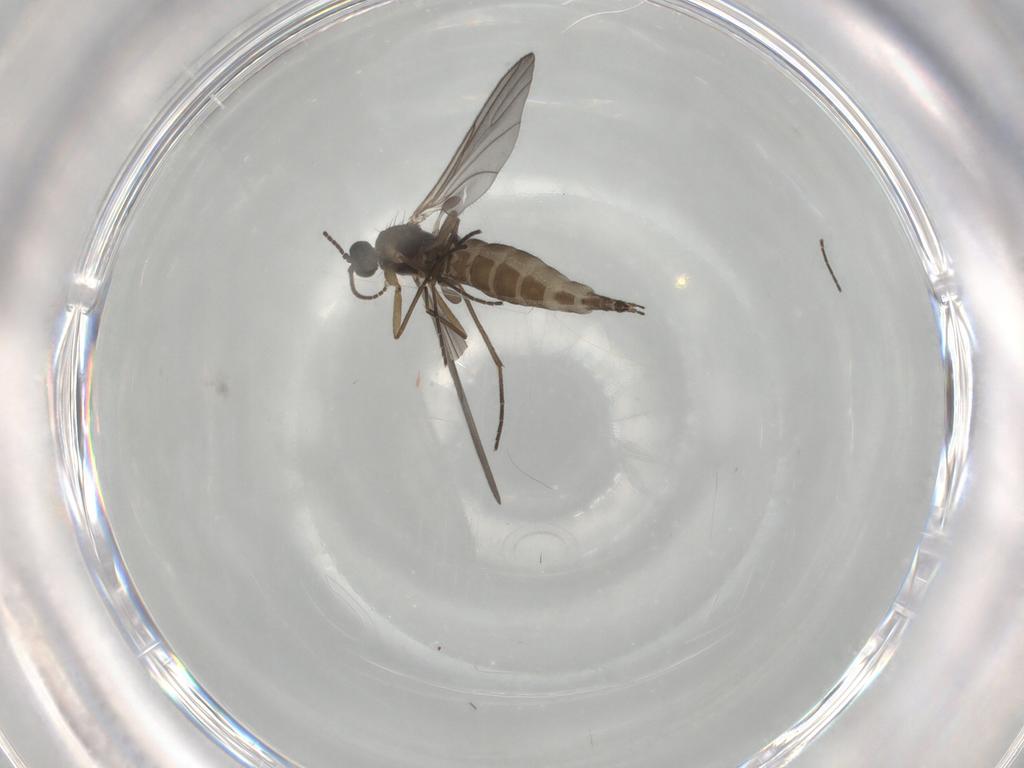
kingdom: Animalia
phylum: Arthropoda
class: Insecta
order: Diptera
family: Sciaridae
